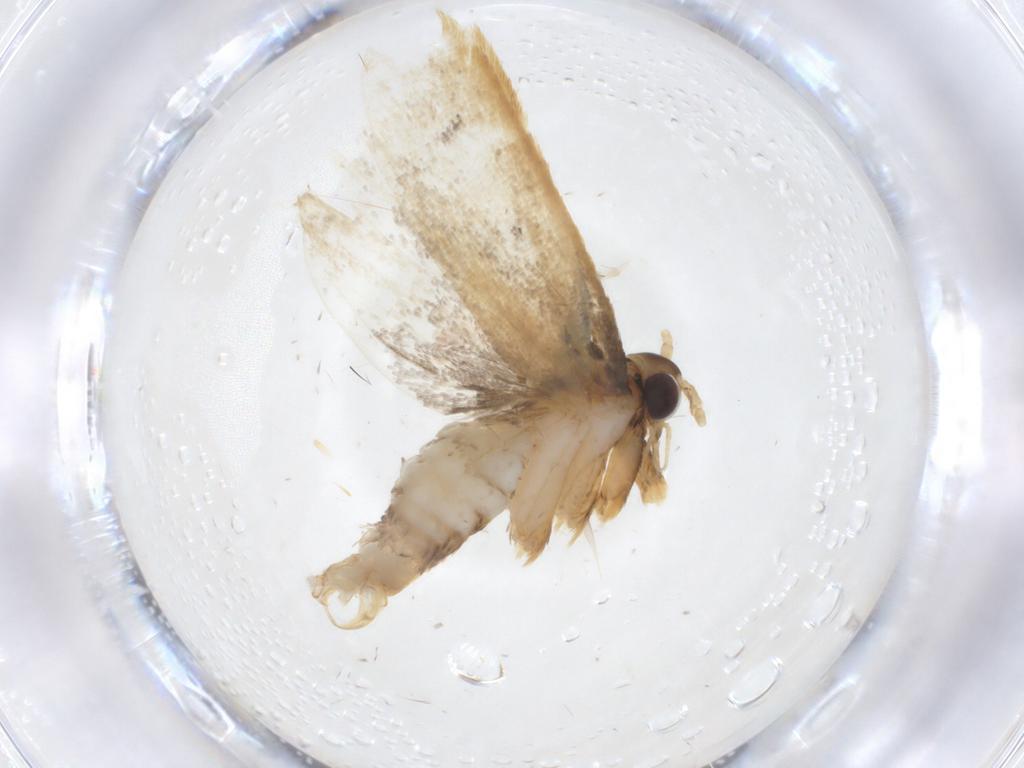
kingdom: Animalia
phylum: Arthropoda
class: Insecta
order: Lepidoptera
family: Lecithoceridae
